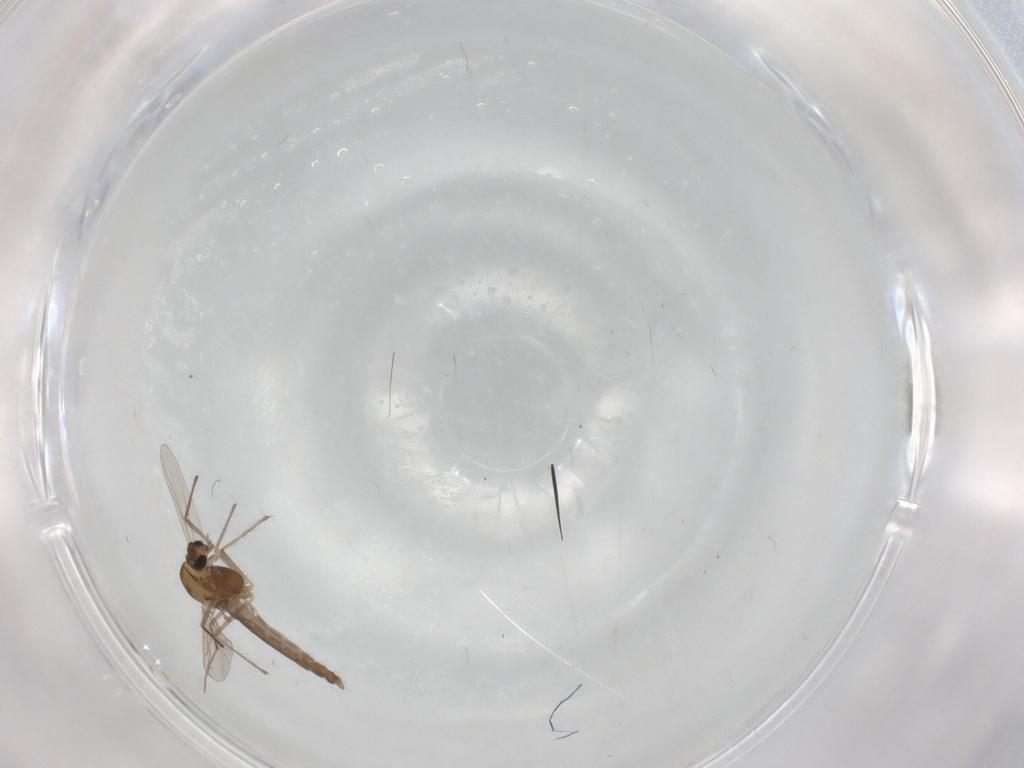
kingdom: Animalia
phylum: Arthropoda
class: Insecta
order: Diptera
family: Chironomidae
